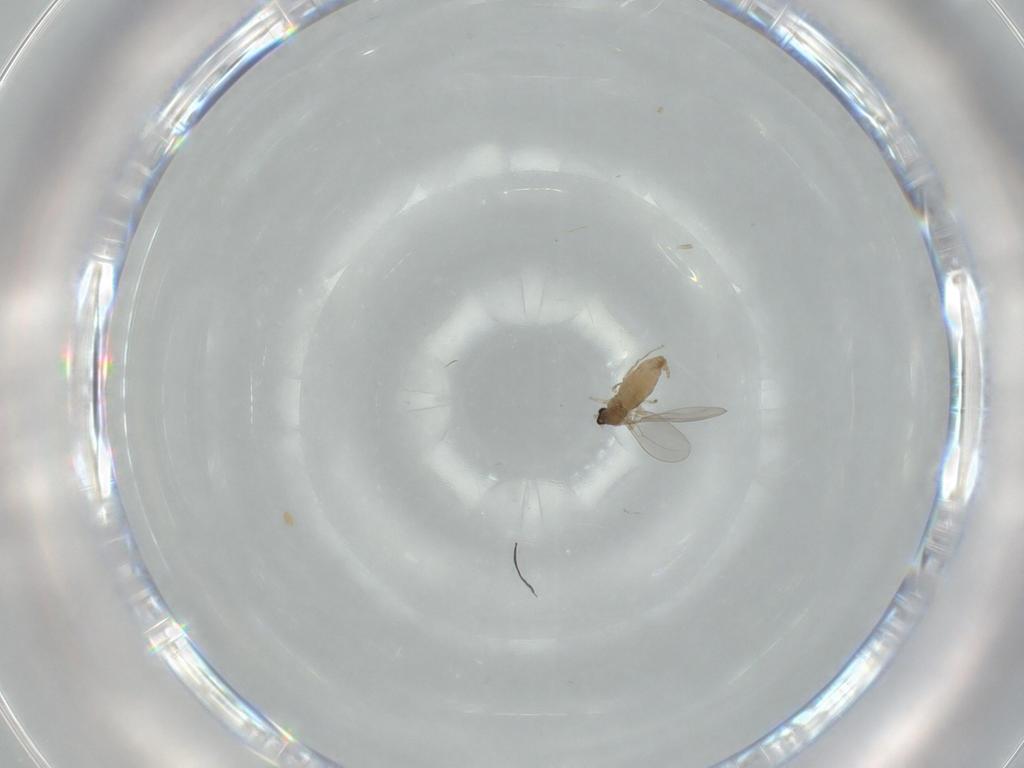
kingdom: Animalia
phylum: Arthropoda
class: Insecta
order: Diptera
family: Cecidomyiidae
